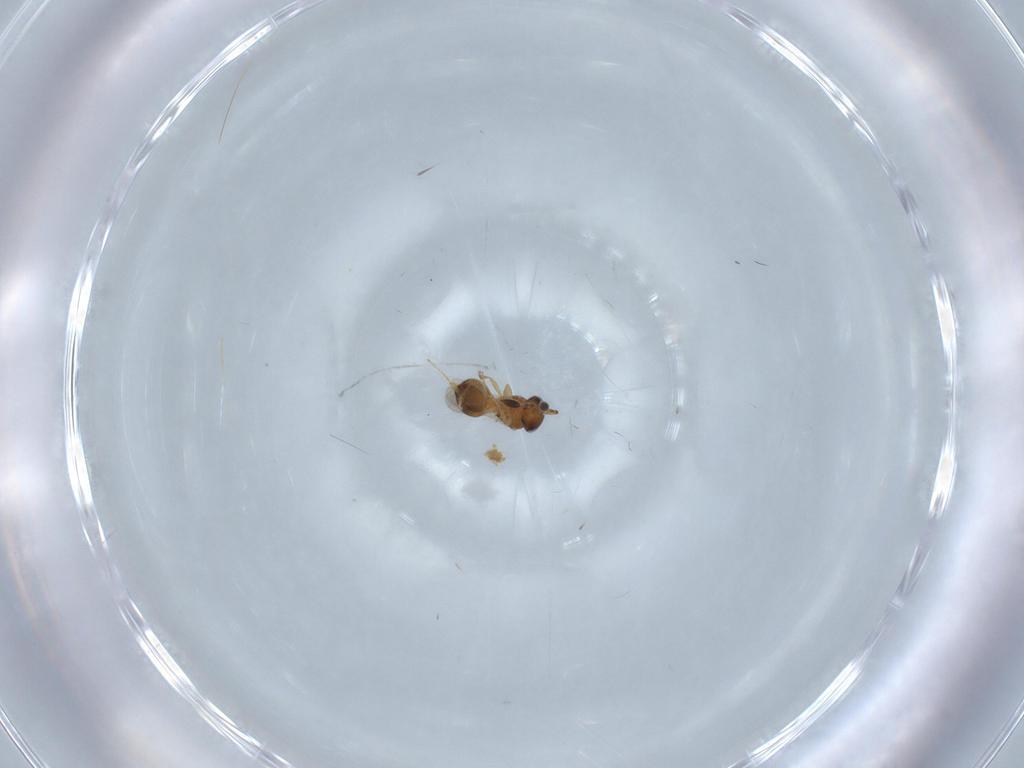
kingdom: Animalia
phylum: Arthropoda
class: Insecta
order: Hymenoptera
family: Scelionidae
